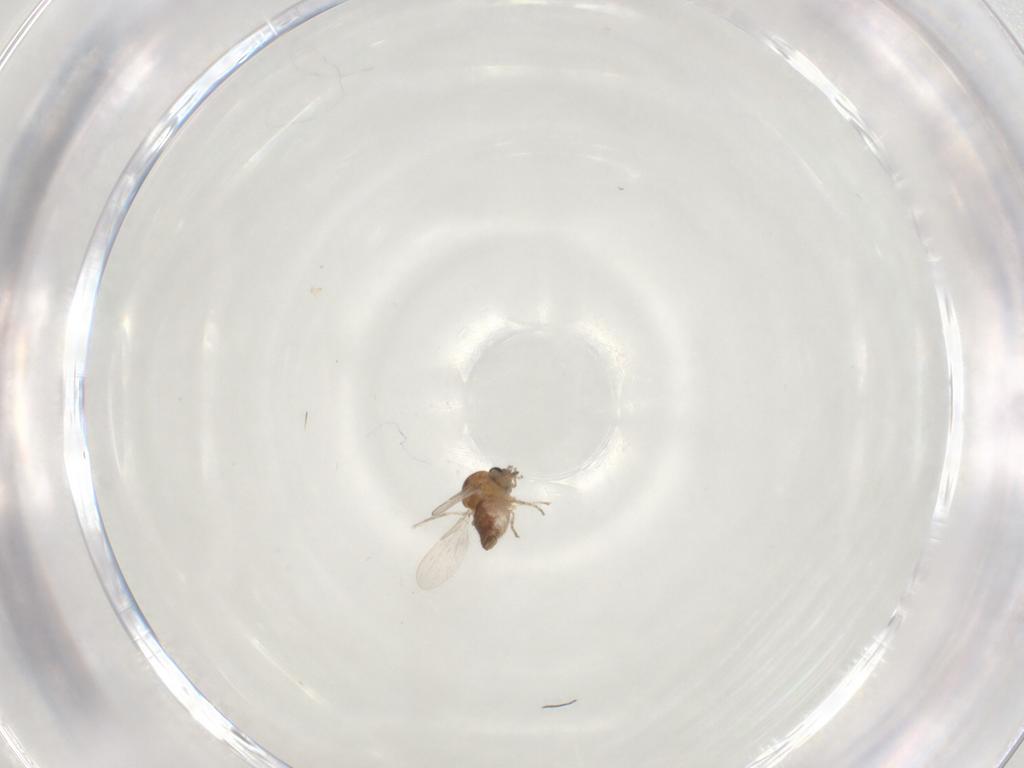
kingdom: Animalia
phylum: Arthropoda
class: Insecta
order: Diptera
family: Ceratopogonidae
